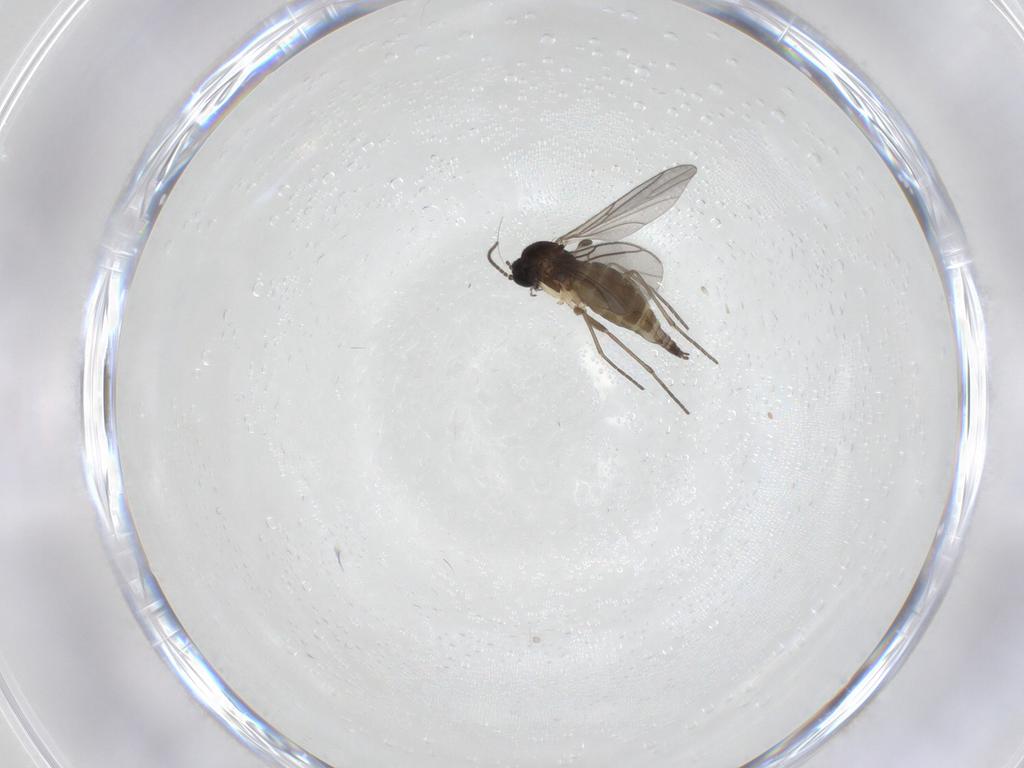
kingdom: Animalia
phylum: Arthropoda
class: Insecta
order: Diptera
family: Sciaridae
